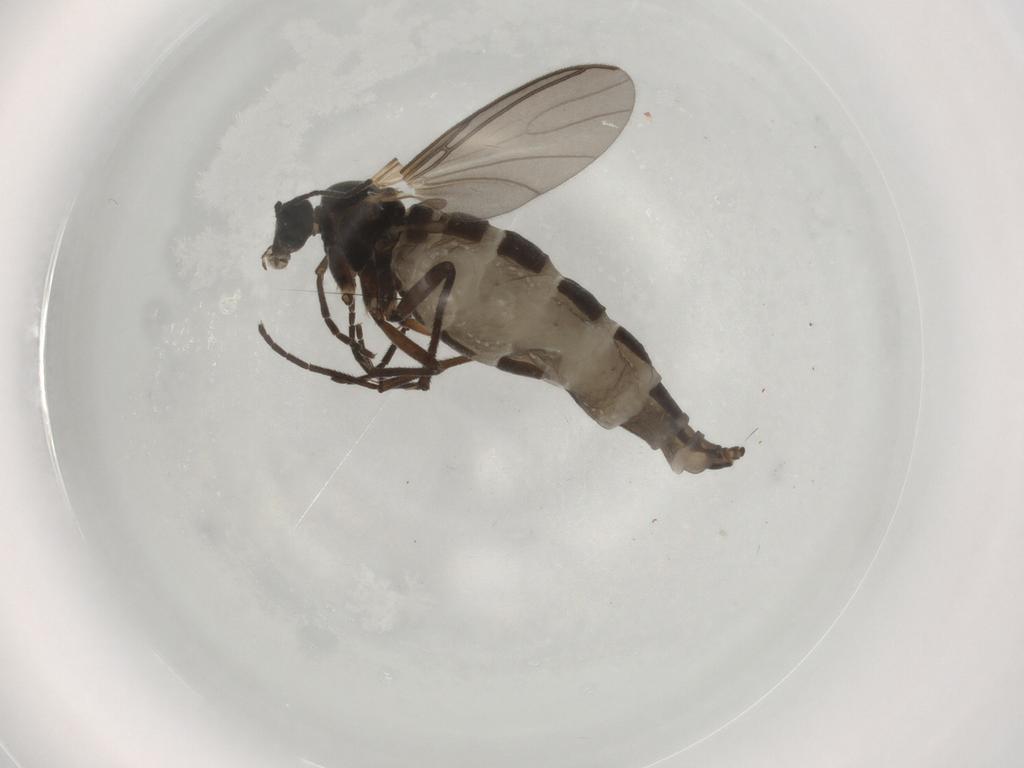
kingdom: Animalia
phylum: Arthropoda
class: Insecta
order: Diptera
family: Sciaridae
